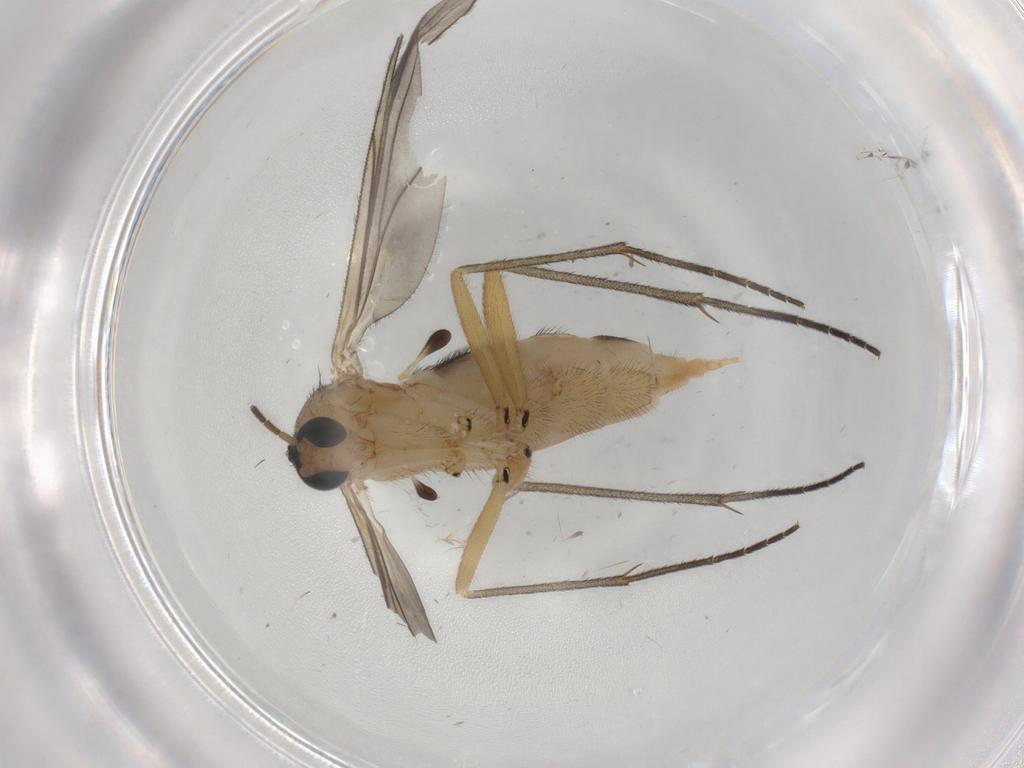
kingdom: Animalia
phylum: Arthropoda
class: Insecta
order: Diptera
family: Sciaridae
